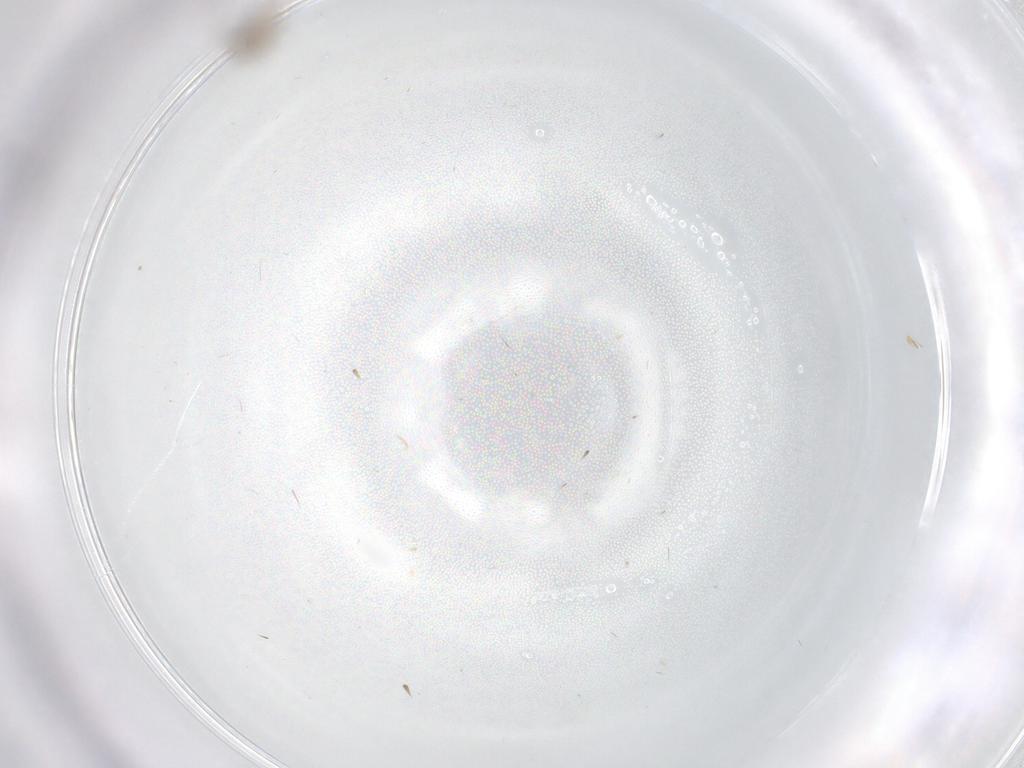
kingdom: Animalia
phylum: Arthropoda
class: Insecta
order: Diptera
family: Limoniidae
